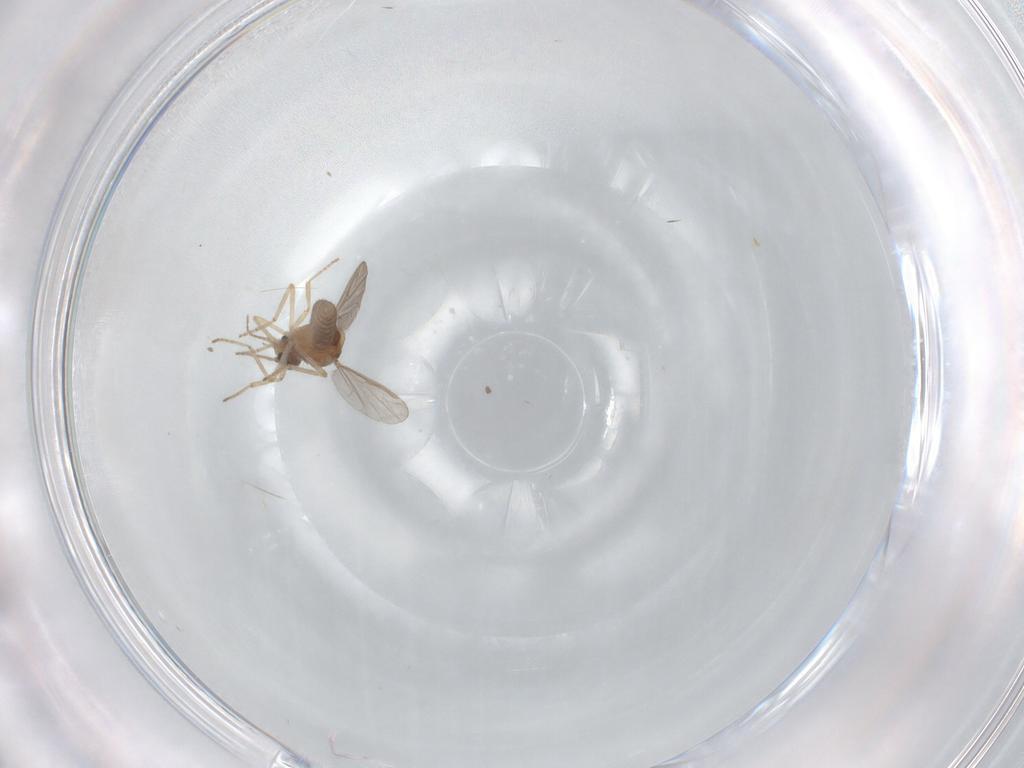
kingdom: Animalia
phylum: Arthropoda
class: Insecta
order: Diptera
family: Ceratopogonidae
